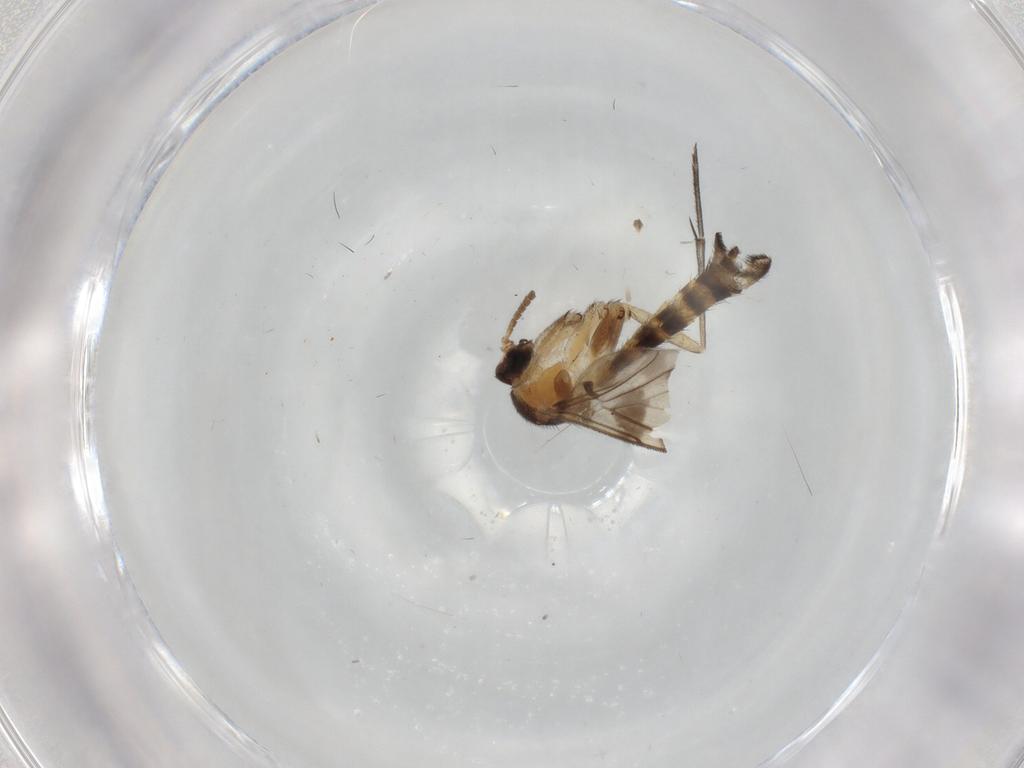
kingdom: Animalia
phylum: Arthropoda
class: Insecta
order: Diptera
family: Keroplatidae
